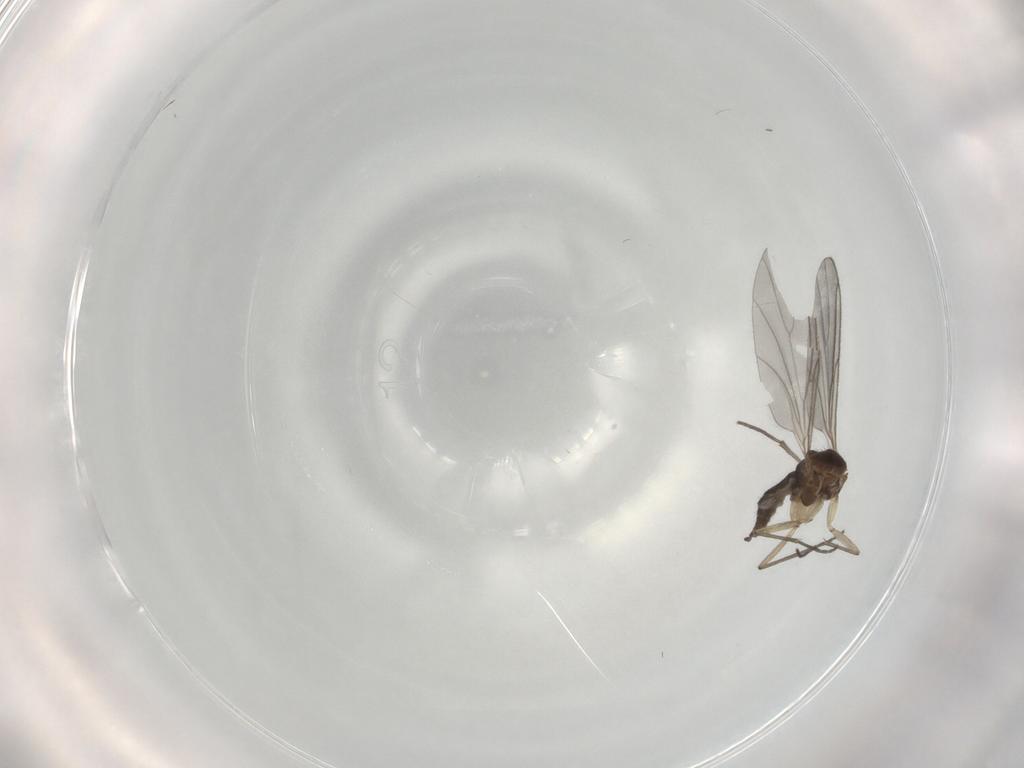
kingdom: Animalia
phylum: Arthropoda
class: Insecta
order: Diptera
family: Sciaridae
